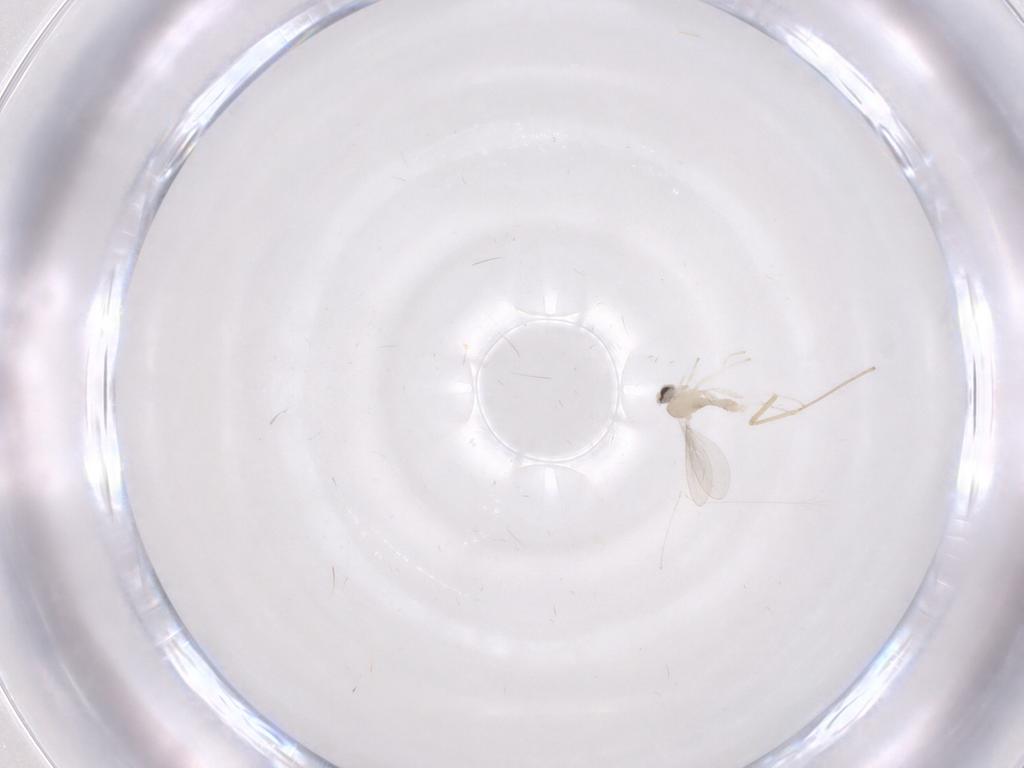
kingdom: Animalia
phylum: Arthropoda
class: Insecta
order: Diptera
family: Cecidomyiidae
